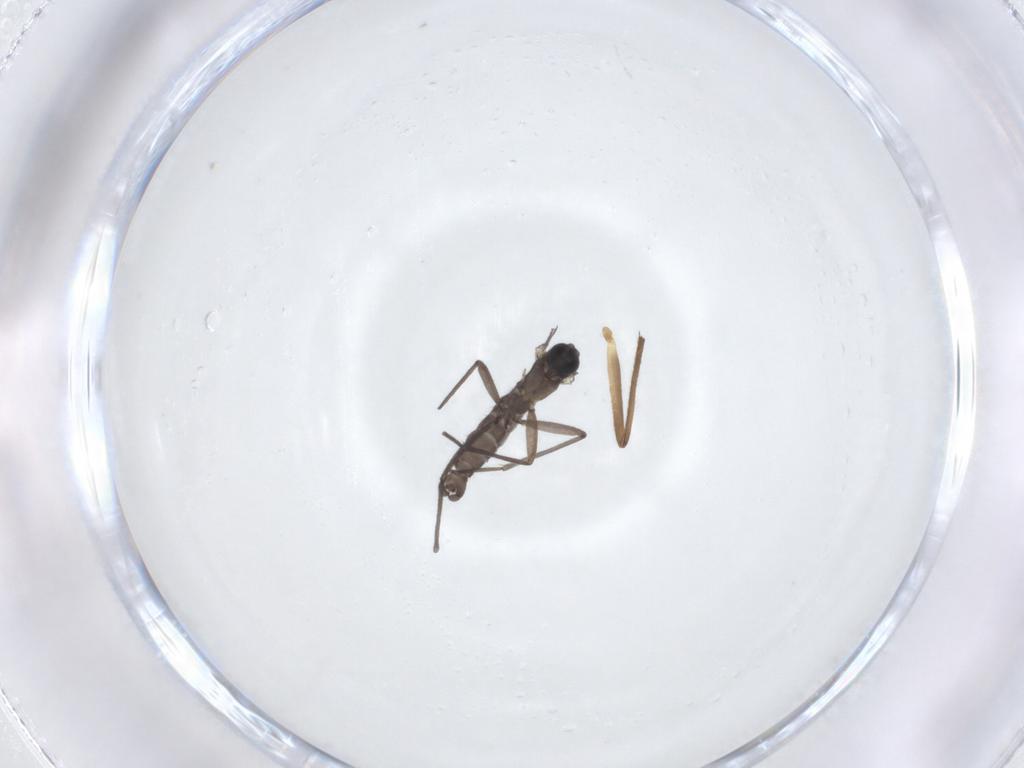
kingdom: Animalia
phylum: Arthropoda
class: Insecta
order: Diptera
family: Chironomidae
